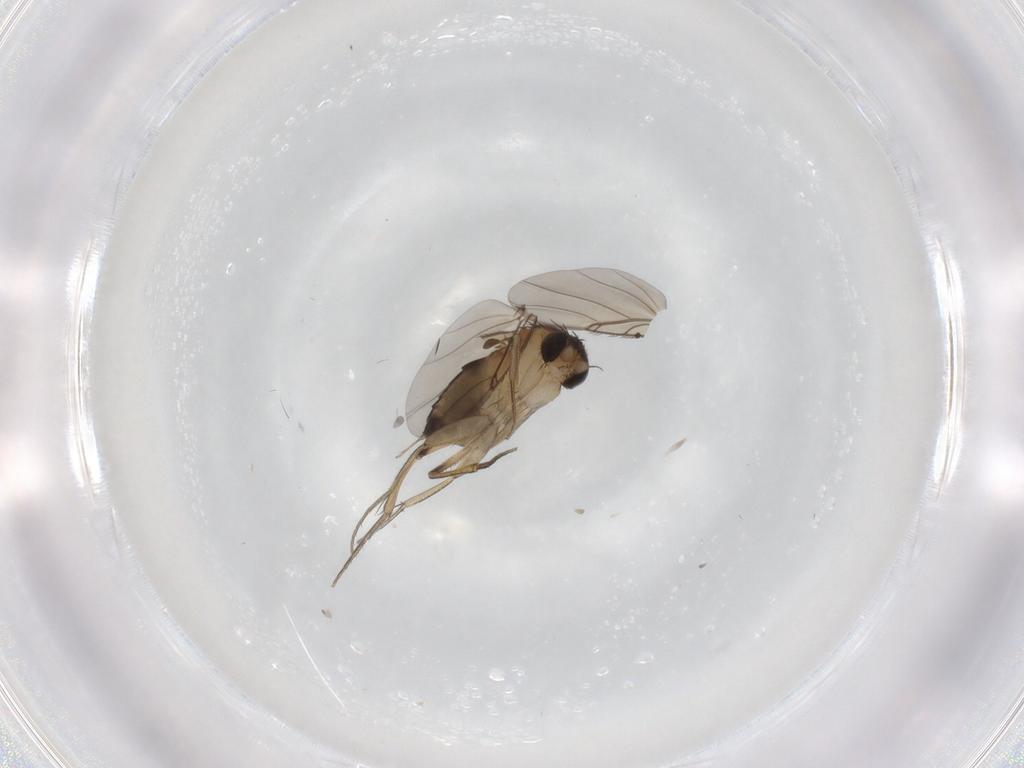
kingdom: Animalia
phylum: Arthropoda
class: Insecta
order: Diptera
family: Phoridae
